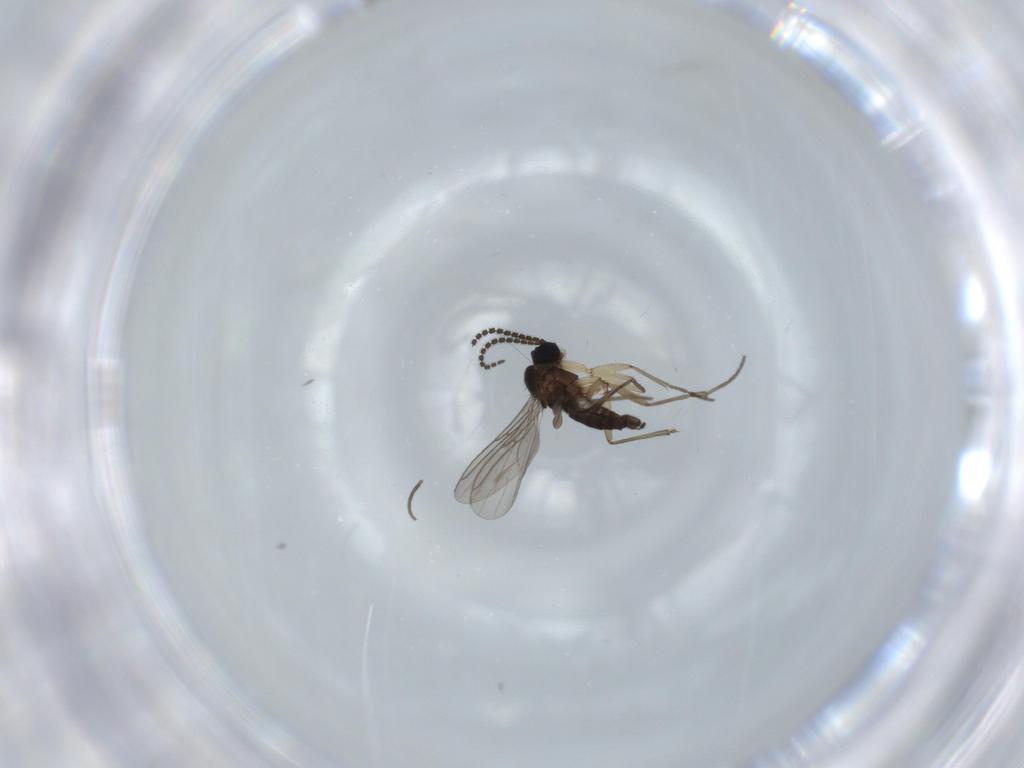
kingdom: Animalia
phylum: Arthropoda
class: Insecta
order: Diptera
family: Sciaridae
